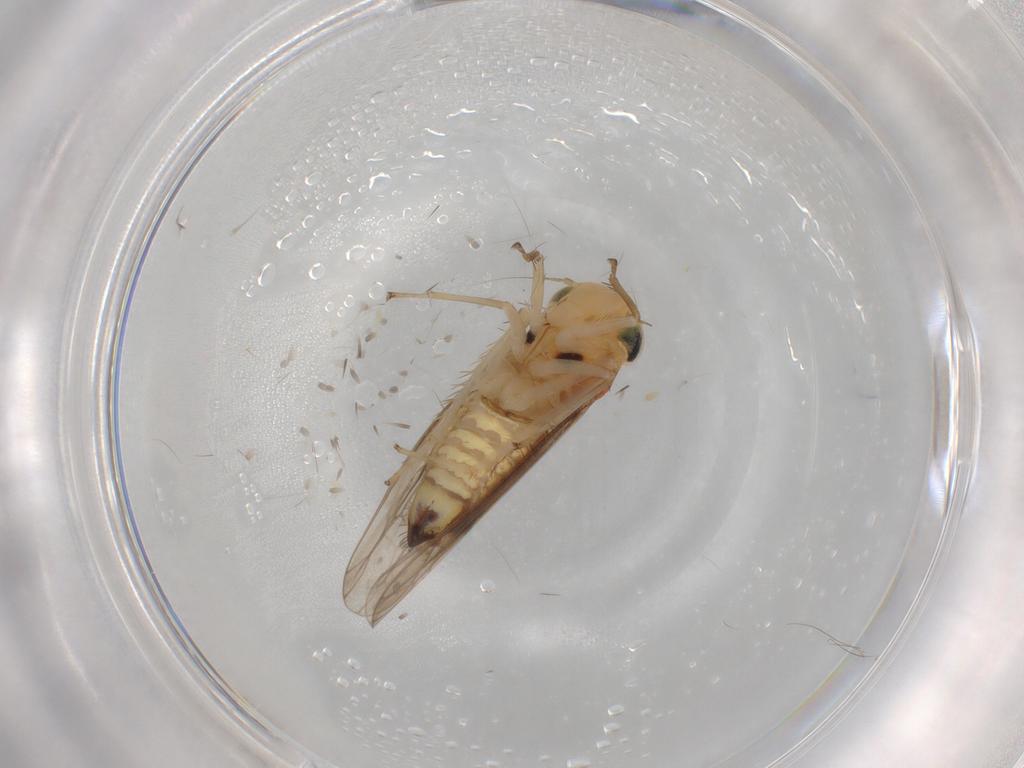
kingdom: Animalia
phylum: Arthropoda
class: Insecta
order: Hemiptera
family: Cicadellidae
